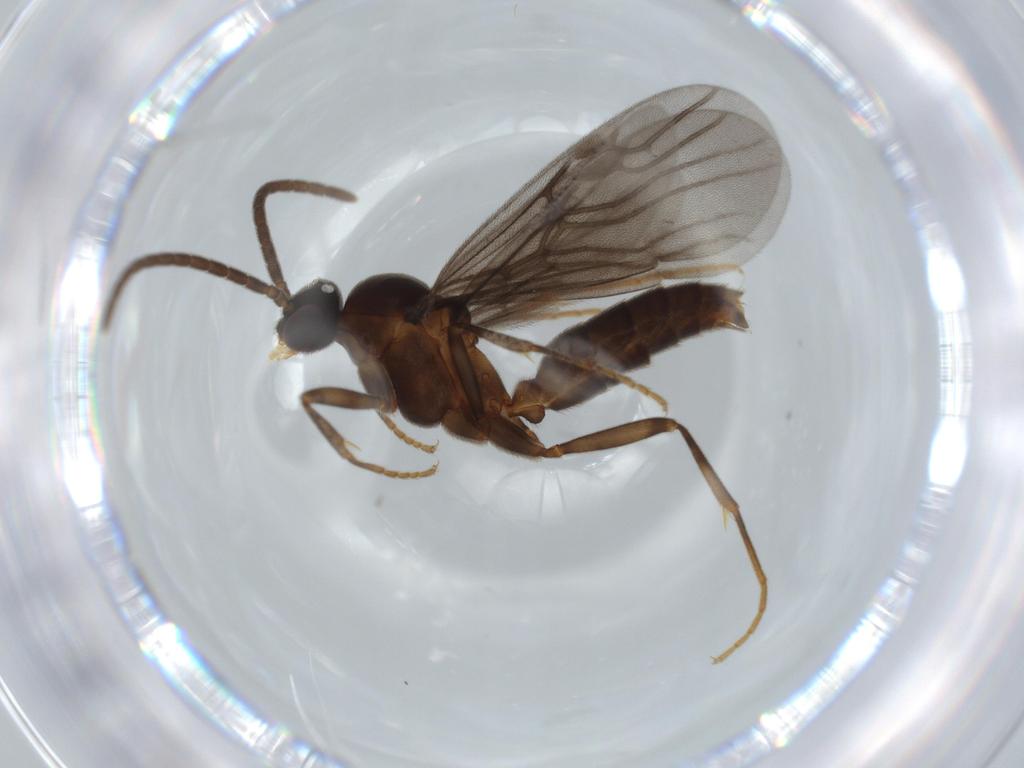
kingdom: Animalia
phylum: Arthropoda
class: Insecta
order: Hymenoptera
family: Formicidae
